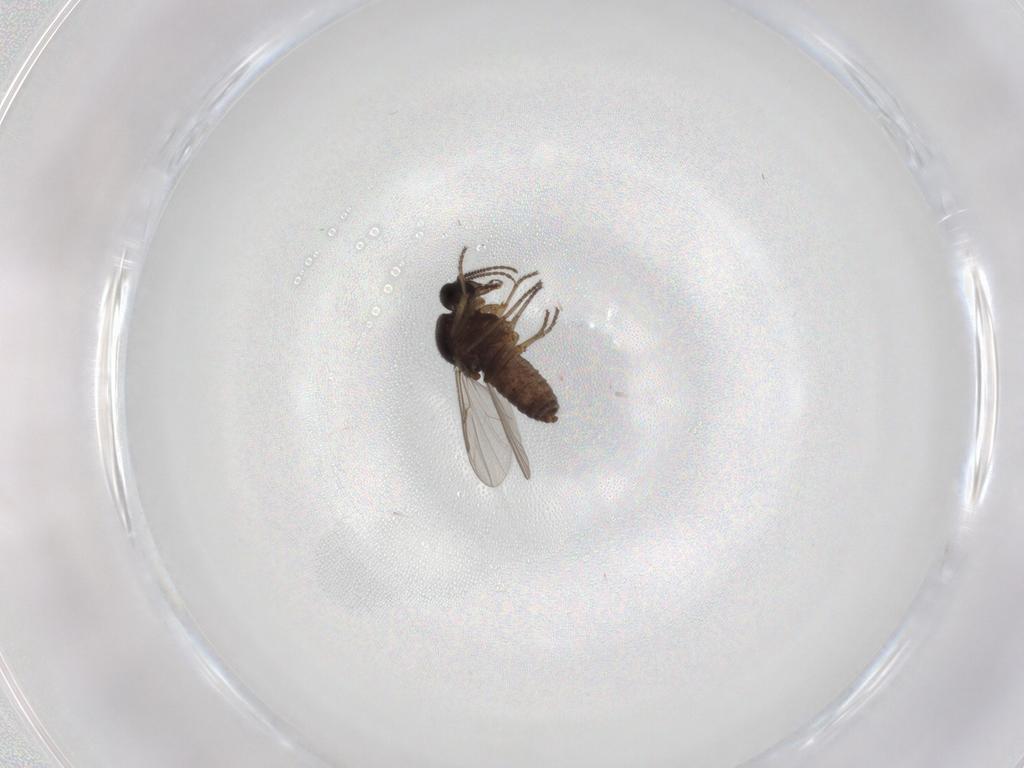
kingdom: Animalia
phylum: Arthropoda
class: Insecta
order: Diptera
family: Ceratopogonidae
